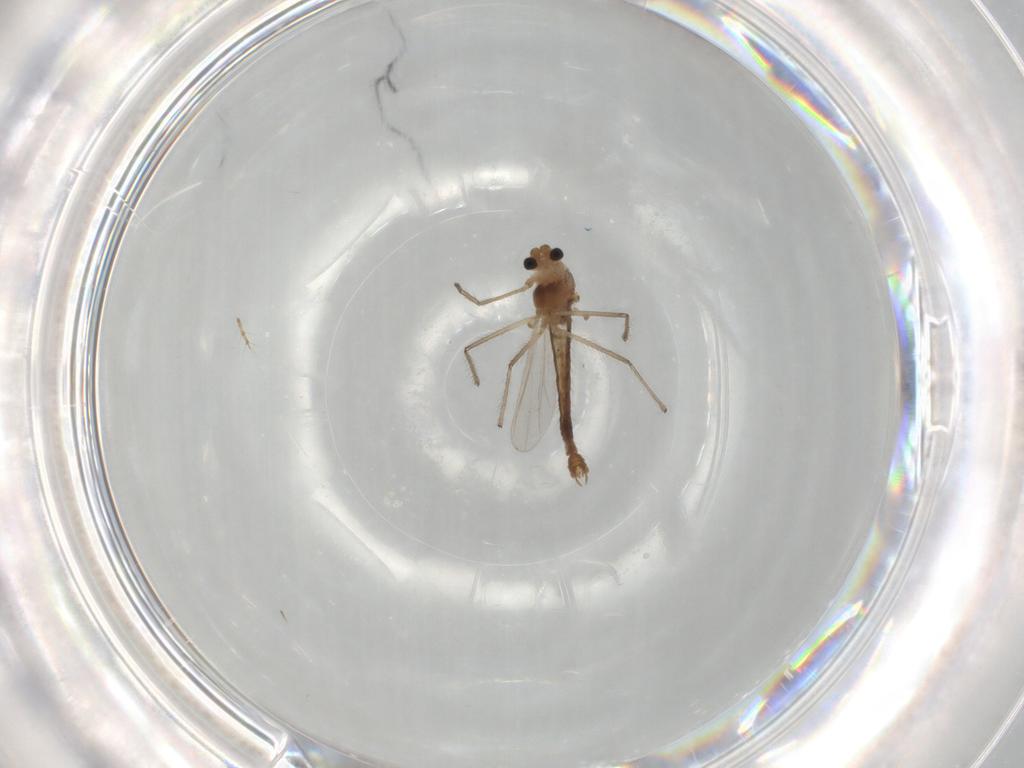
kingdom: Animalia
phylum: Arthropoda
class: Insecta
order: Diptera
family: Chironomidae
